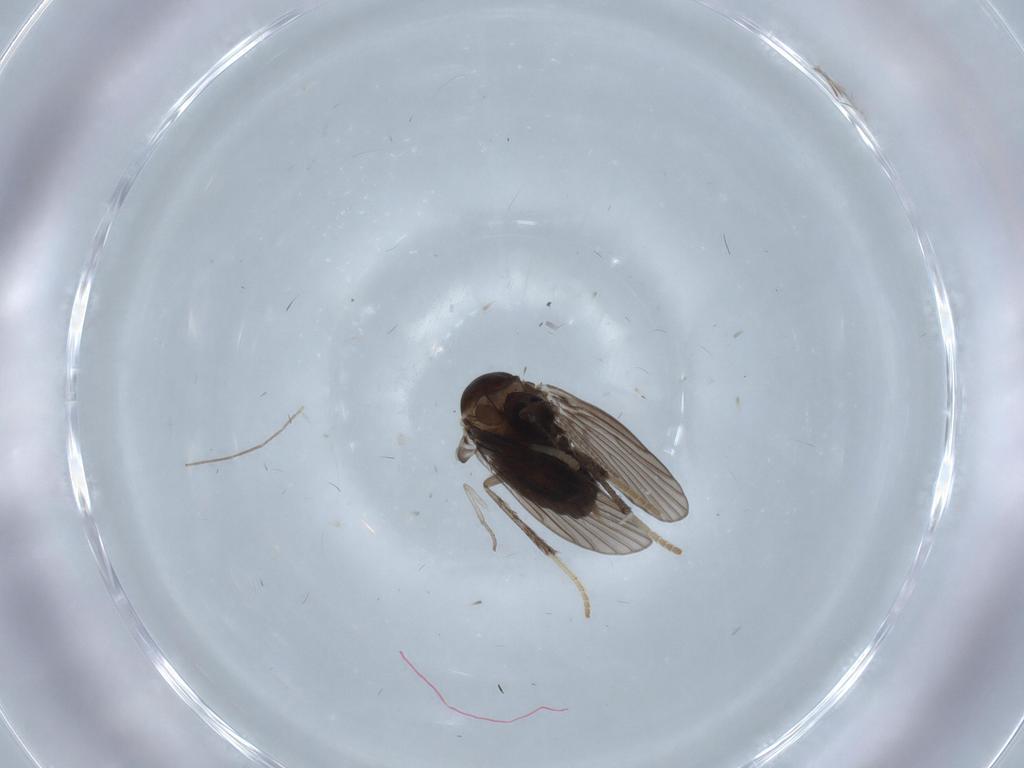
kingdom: Animalia
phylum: Arthropoda
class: Insecta
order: Diptera
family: Psychodidae
